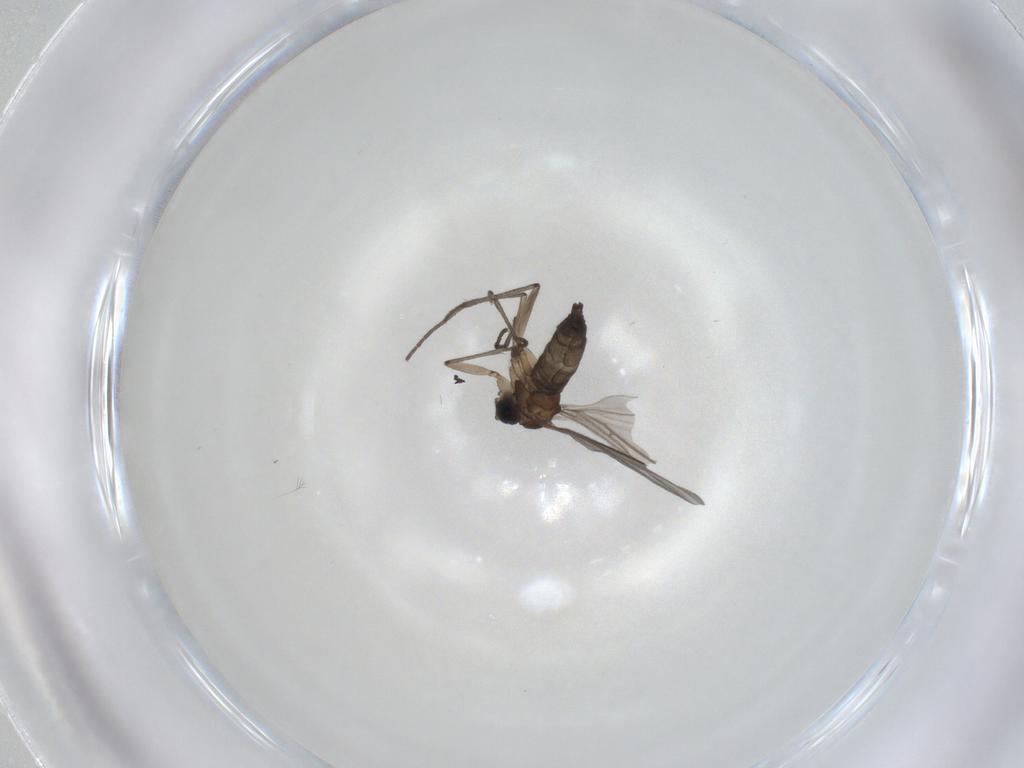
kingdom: Animalia
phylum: Arthropoda
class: Insecta
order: Diptera
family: Sciaridae
